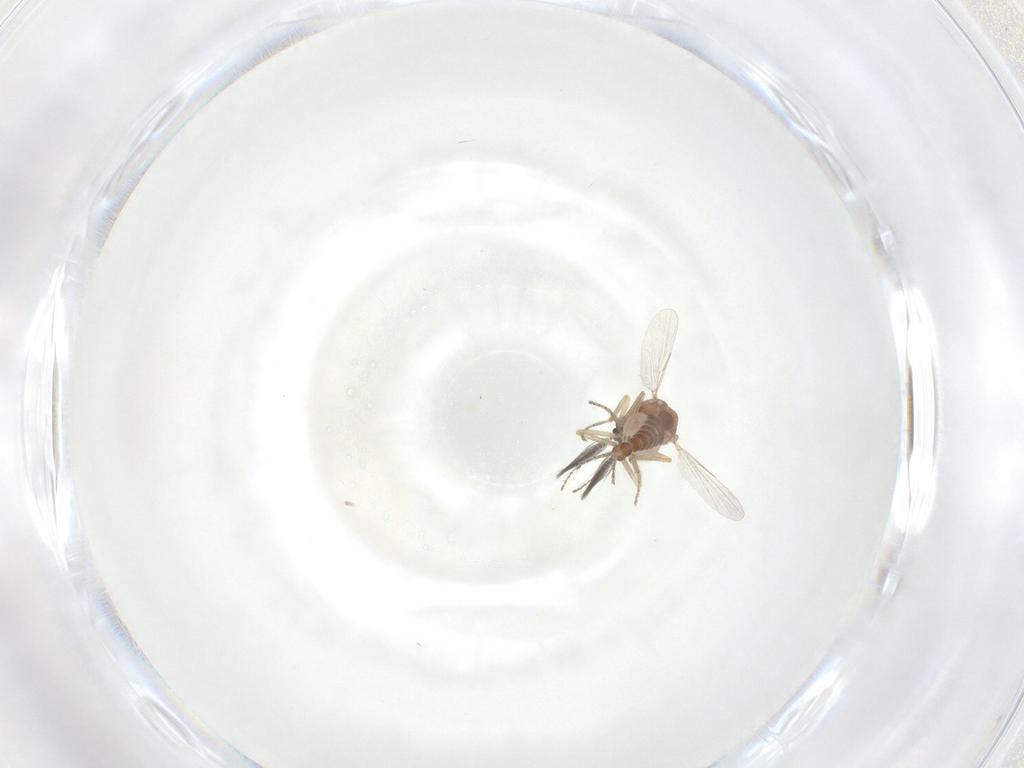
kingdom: Animalia
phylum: Arthropoda
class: Insecta
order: Diptera
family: Ceratopogonidae
